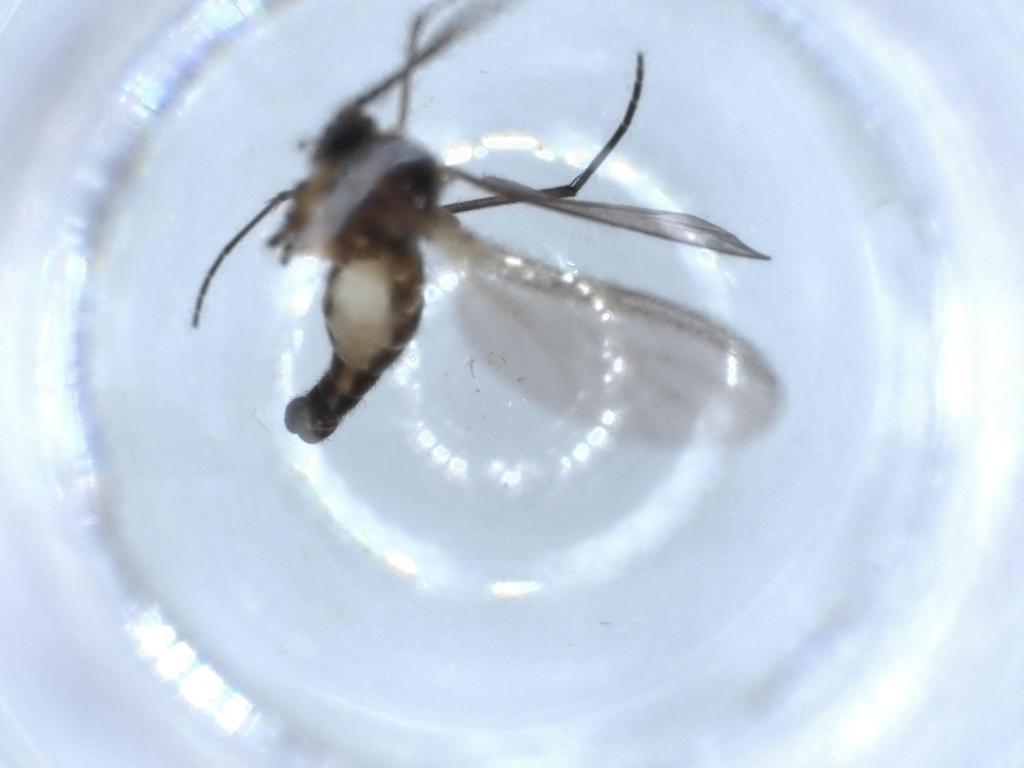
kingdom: Animalia
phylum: Arthropoda
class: Insecta
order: Diptera
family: Sciaridae
